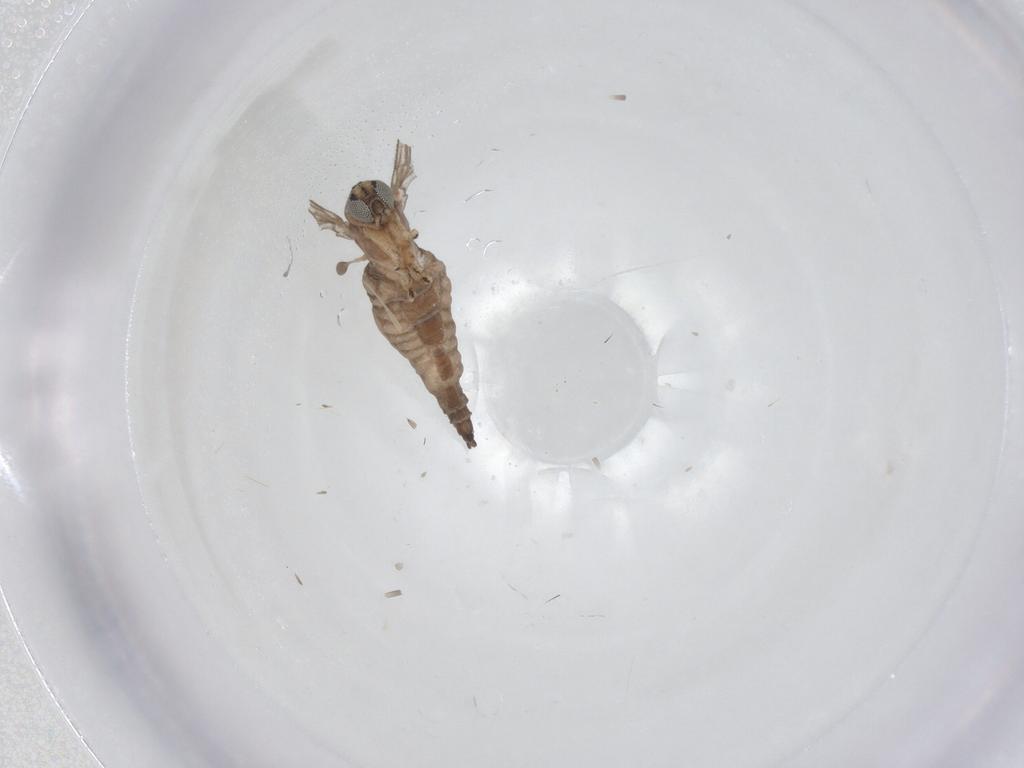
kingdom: Animalia
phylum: Arthropoda
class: Insecta
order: Diptera
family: Sciaridae
